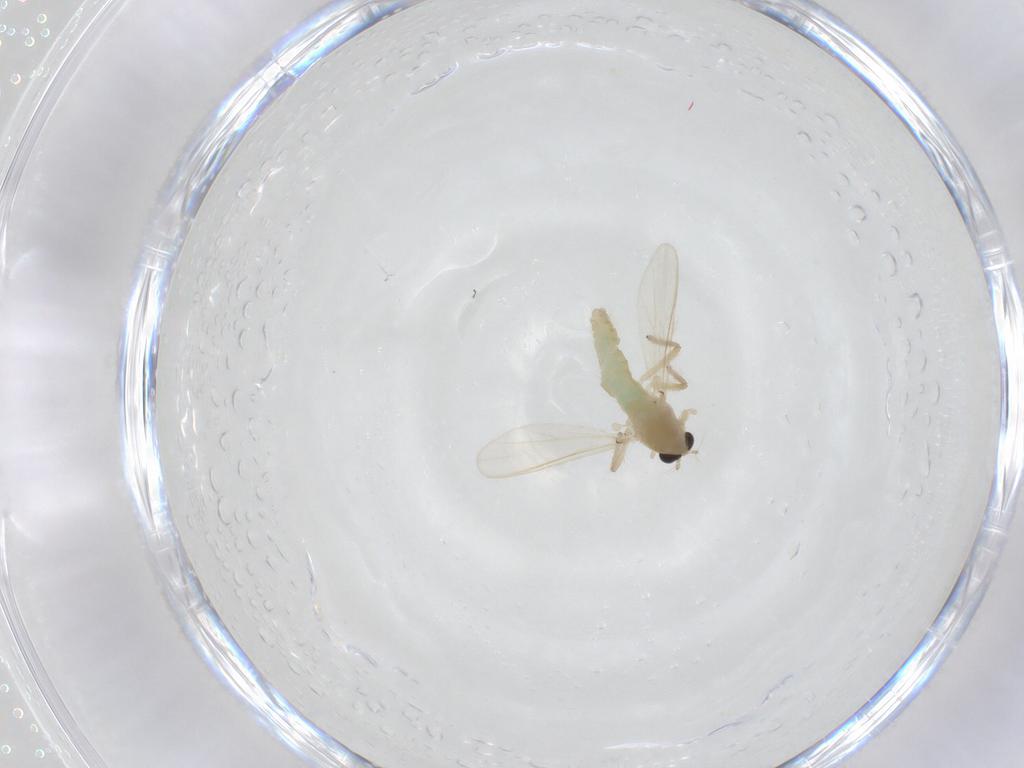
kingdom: Animalia
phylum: Arthropoda
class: Insecta
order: Diptera
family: Chironomidae
